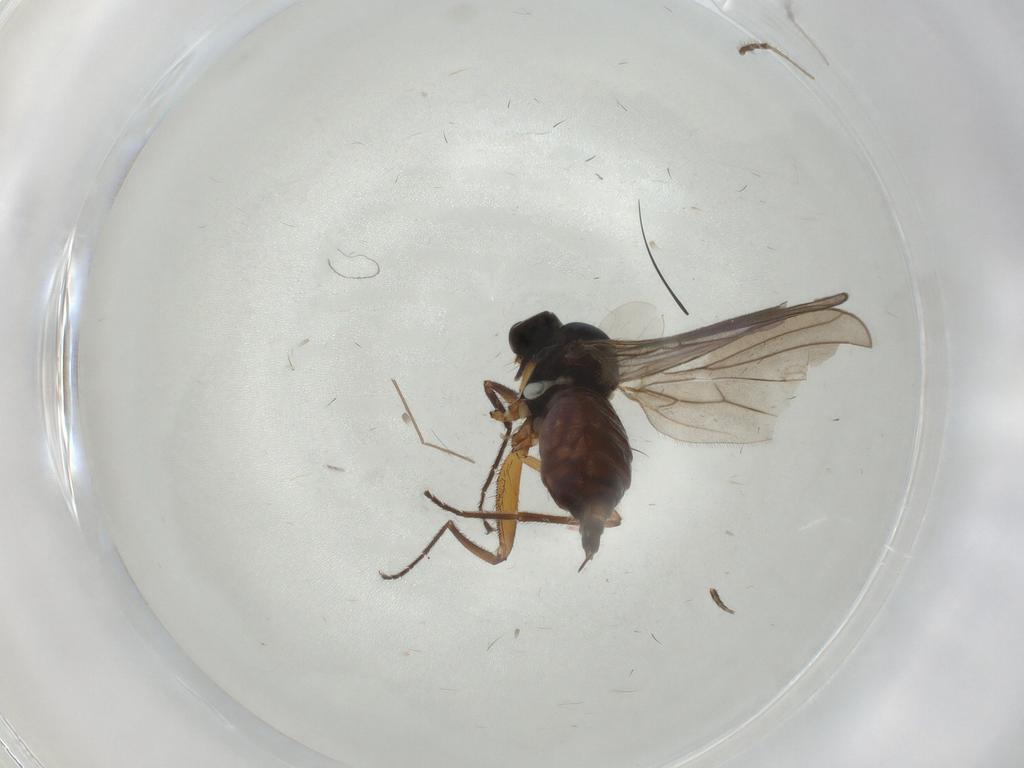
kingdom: Animalia
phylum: Arthropoda
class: Insecta
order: Diptera
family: Hybotidae
